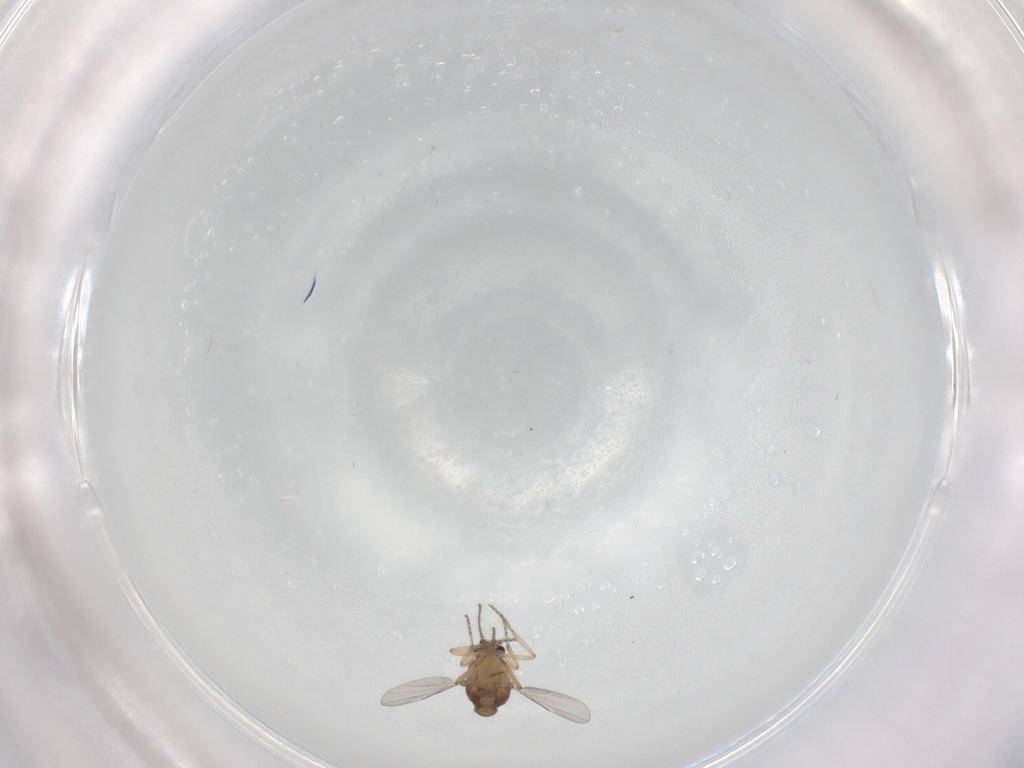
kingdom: Animalia
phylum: Arthropoda
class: Insecta
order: Diptera
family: Ceratopogonidae
